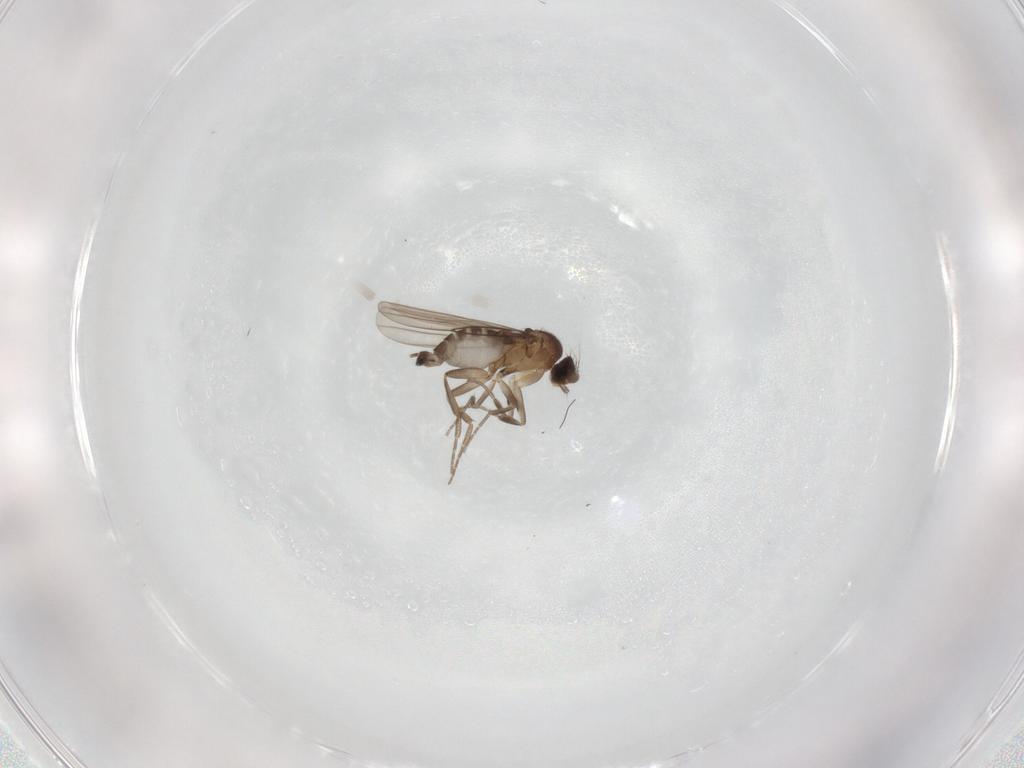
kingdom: Animalia
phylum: Arthropoda
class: Insecta
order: Diptera
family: Phoridae
